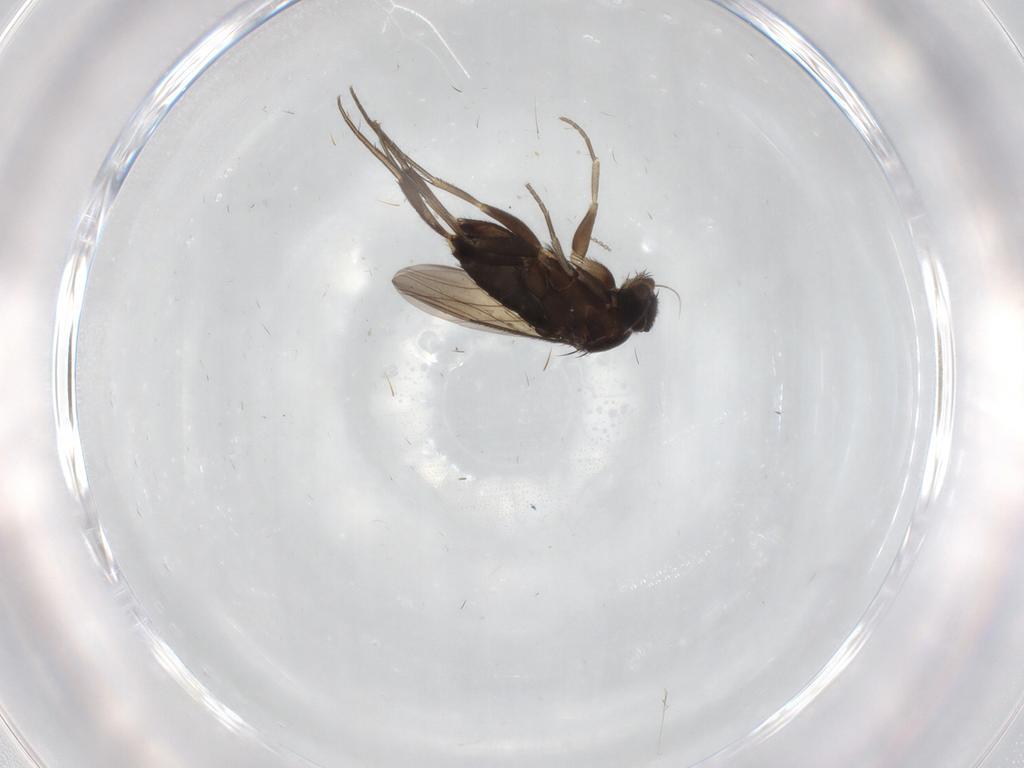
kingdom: Animalia
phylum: Arthropoda
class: Insecta
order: Diptera
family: Phoridae
